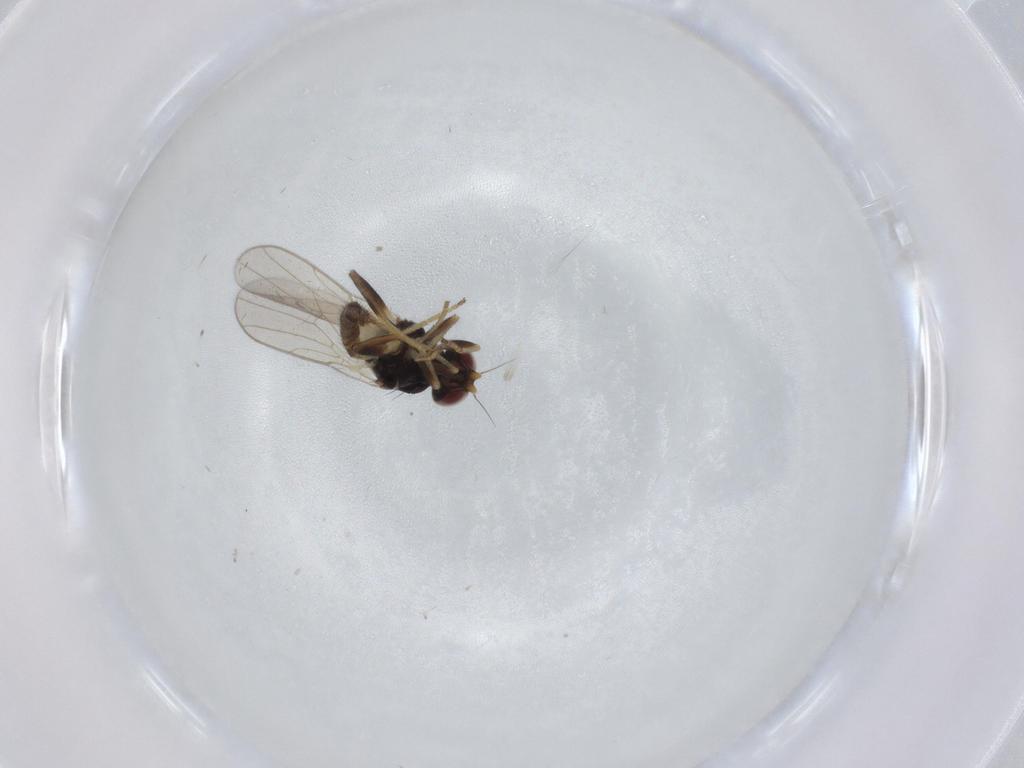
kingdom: Animalia
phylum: Arthropoda
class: Insecta
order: Diptera
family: Chloropidae
